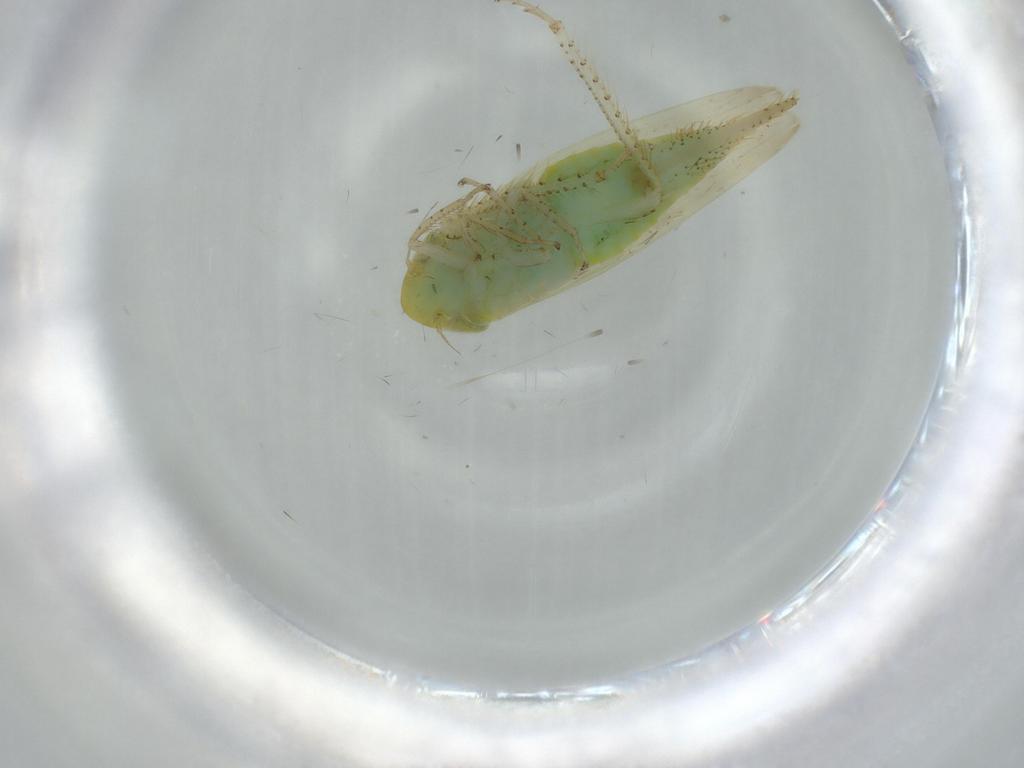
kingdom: Animalia
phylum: Arthropoda
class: Insecta
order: Hemiptera
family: Cicadellidae
